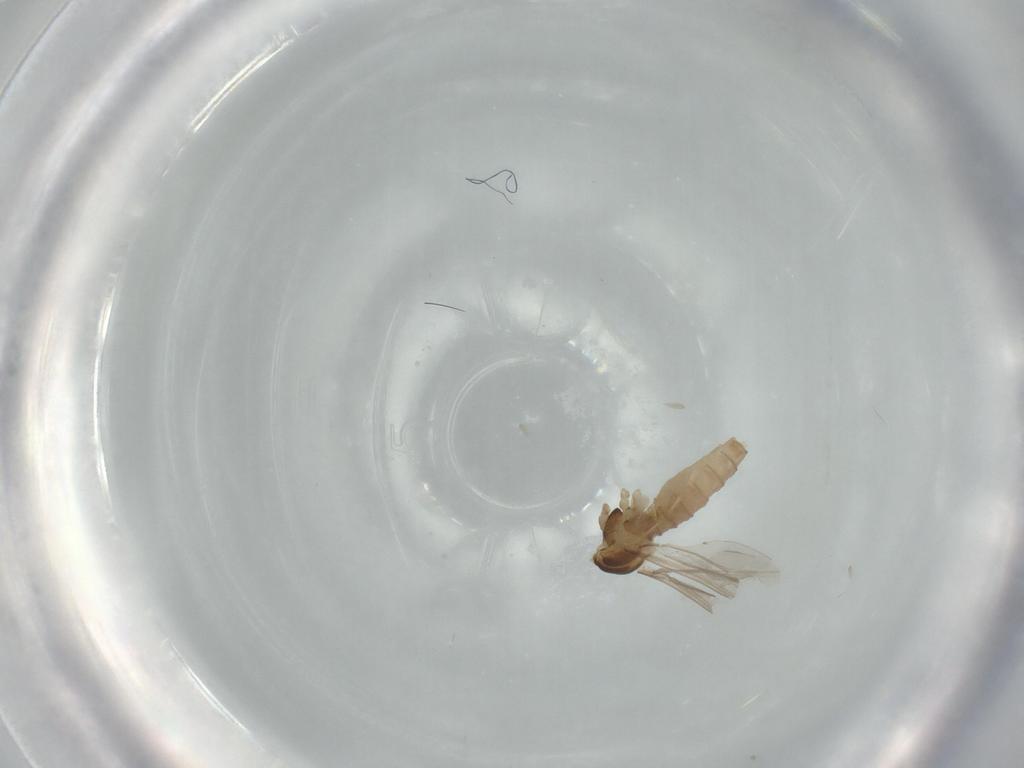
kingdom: Animalia
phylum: Arthropoda
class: Insecta
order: Diptera
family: Cecidomyiidae
